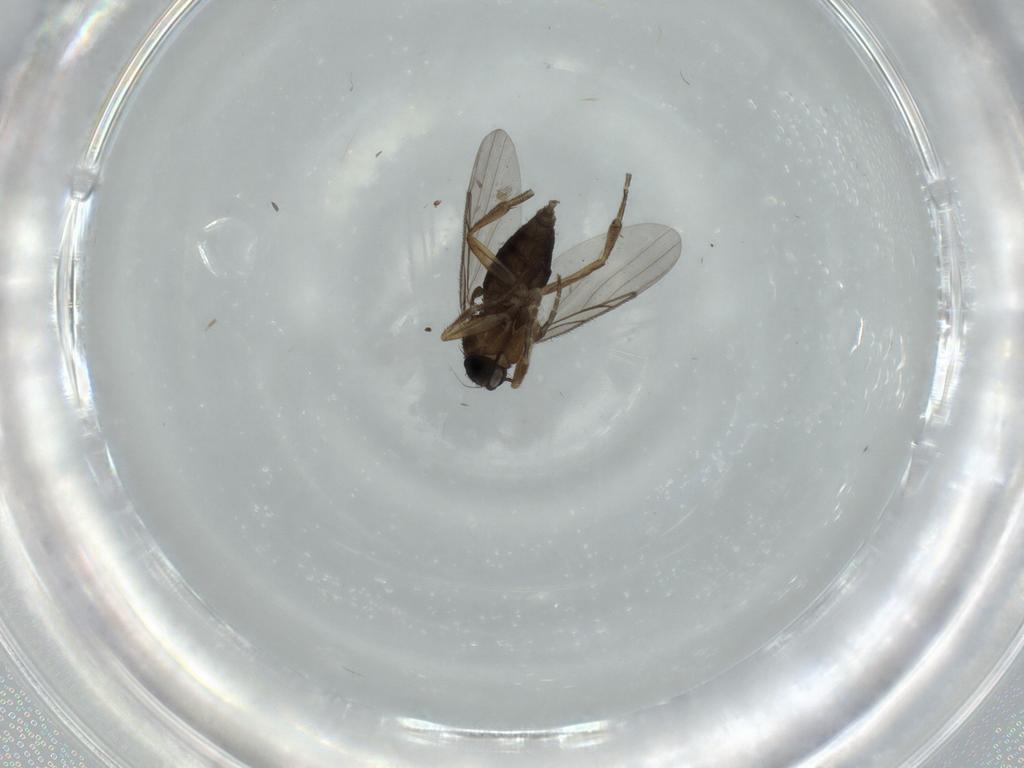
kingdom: Animalia
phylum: Arthropoda
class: Insecta
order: Diptera
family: Phoridae
